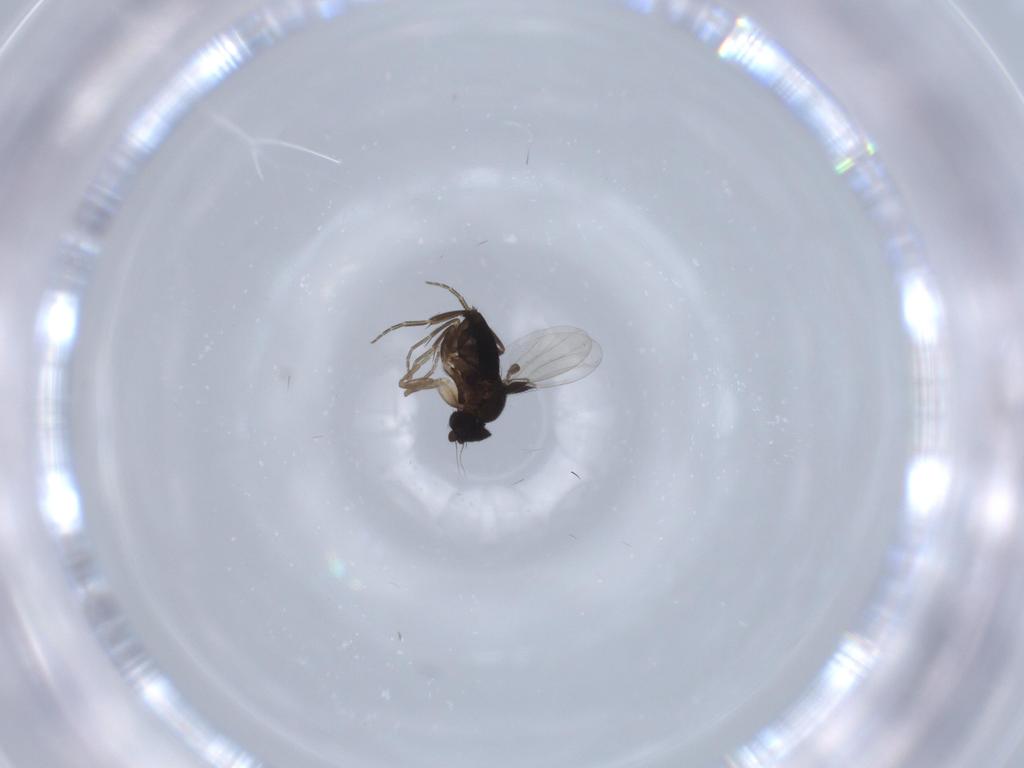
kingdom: Animalia
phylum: Arthropoda
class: Insecta
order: Diptera
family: Phoridae
